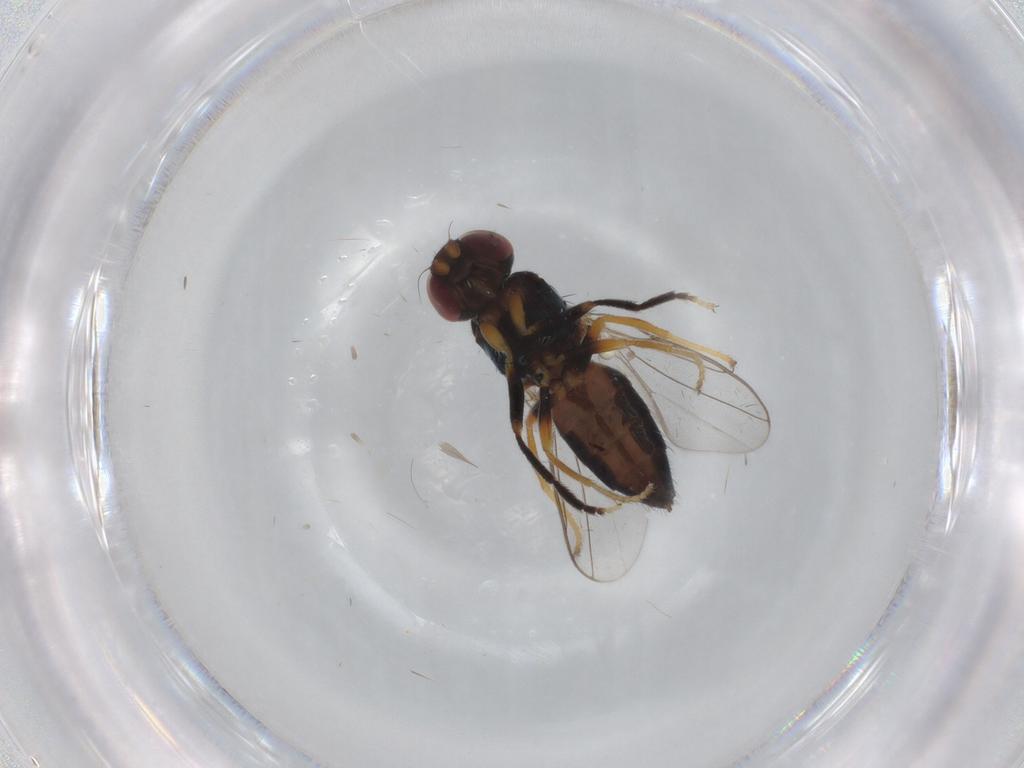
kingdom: Animalia
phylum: Arthropoda
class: Insecta
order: Diptera
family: Chloropidae
